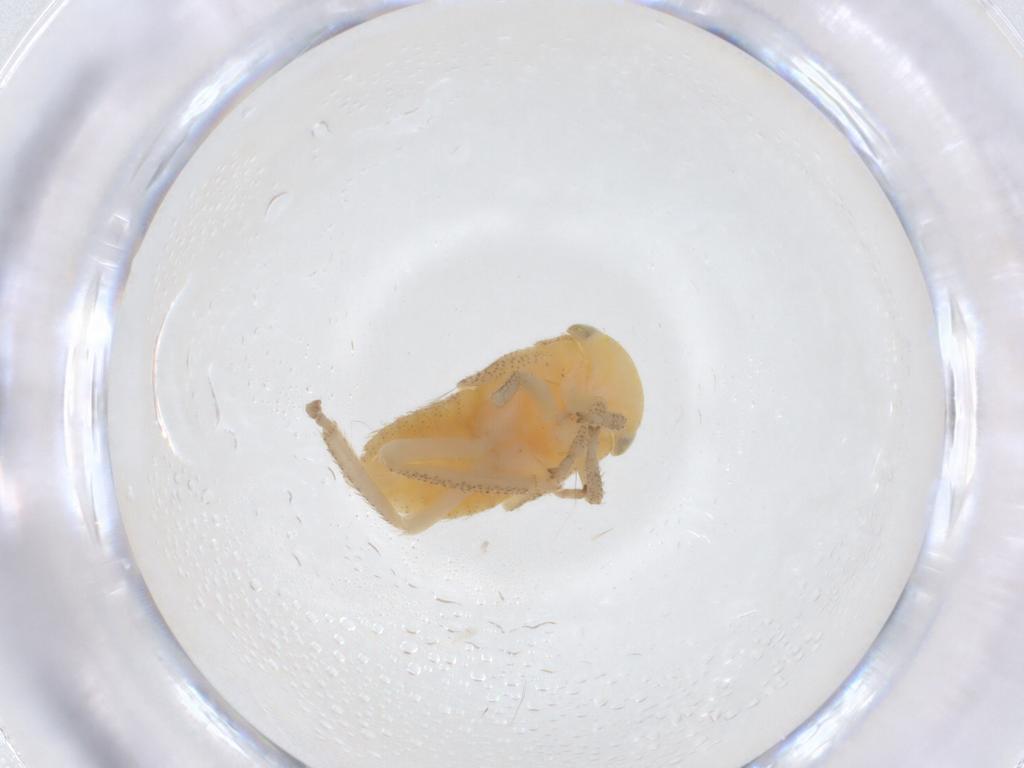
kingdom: Animalia
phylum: Arthropoda
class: Insecta
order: Hemiptera
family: Cicadellidae
